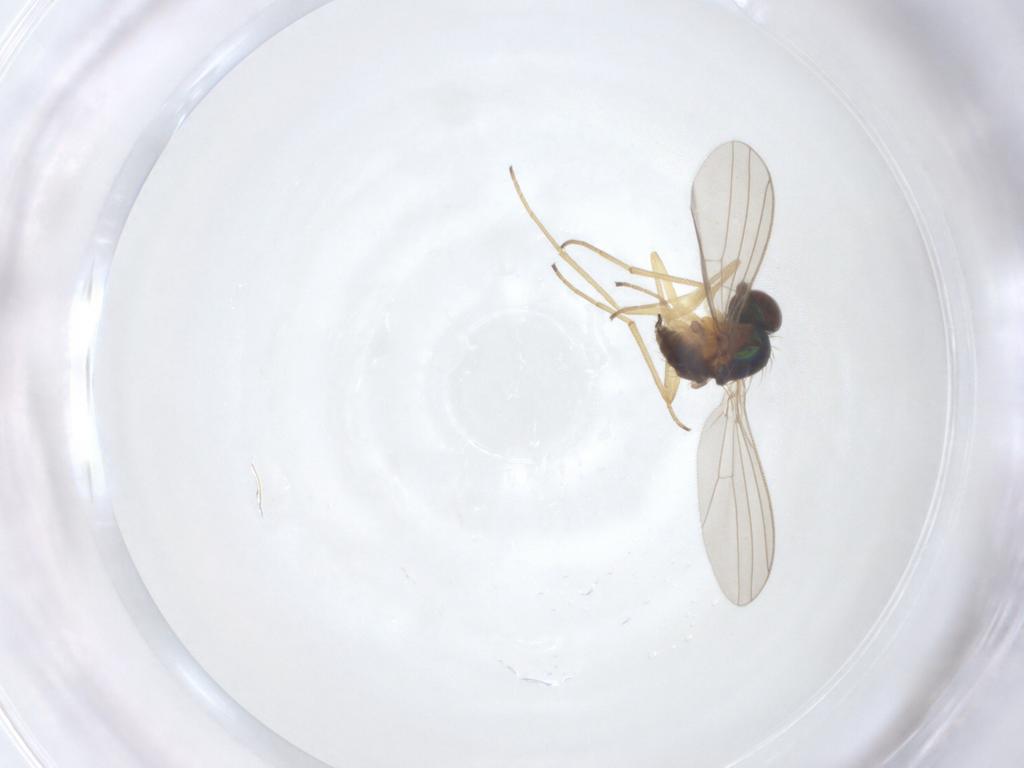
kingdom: Animalia
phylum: Arthropoda
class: Insecta
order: Diptera
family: Dolichopodidae
